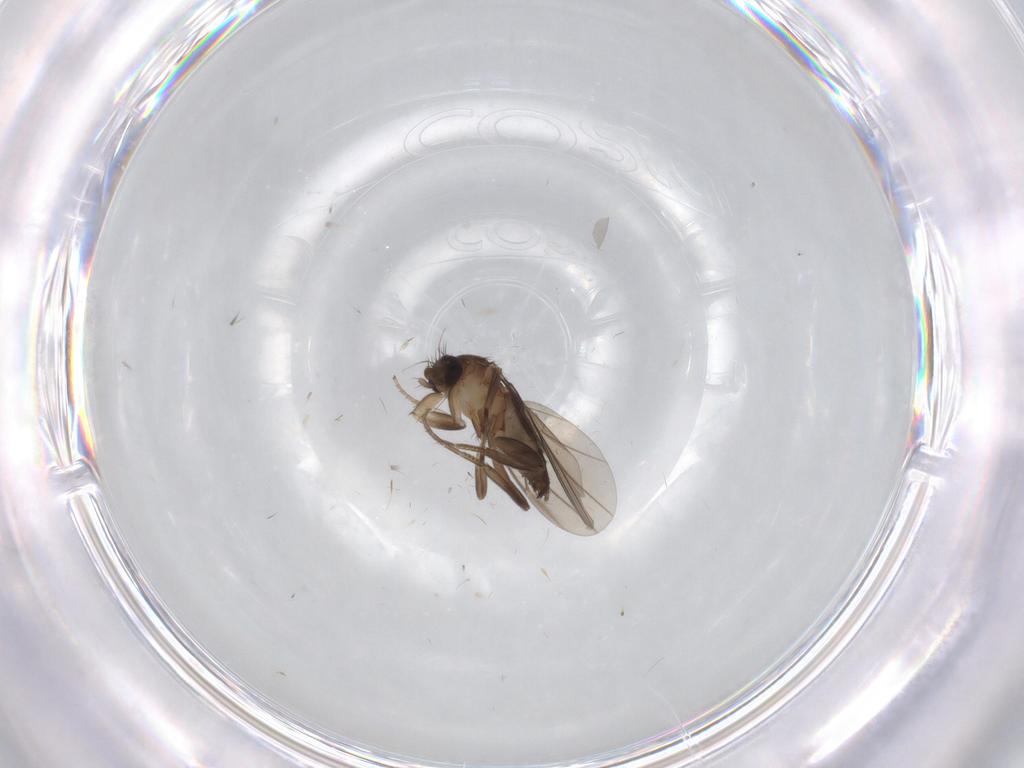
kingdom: Animalia
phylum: Arthropoda
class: Insecta
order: Diptera
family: Phoridae
